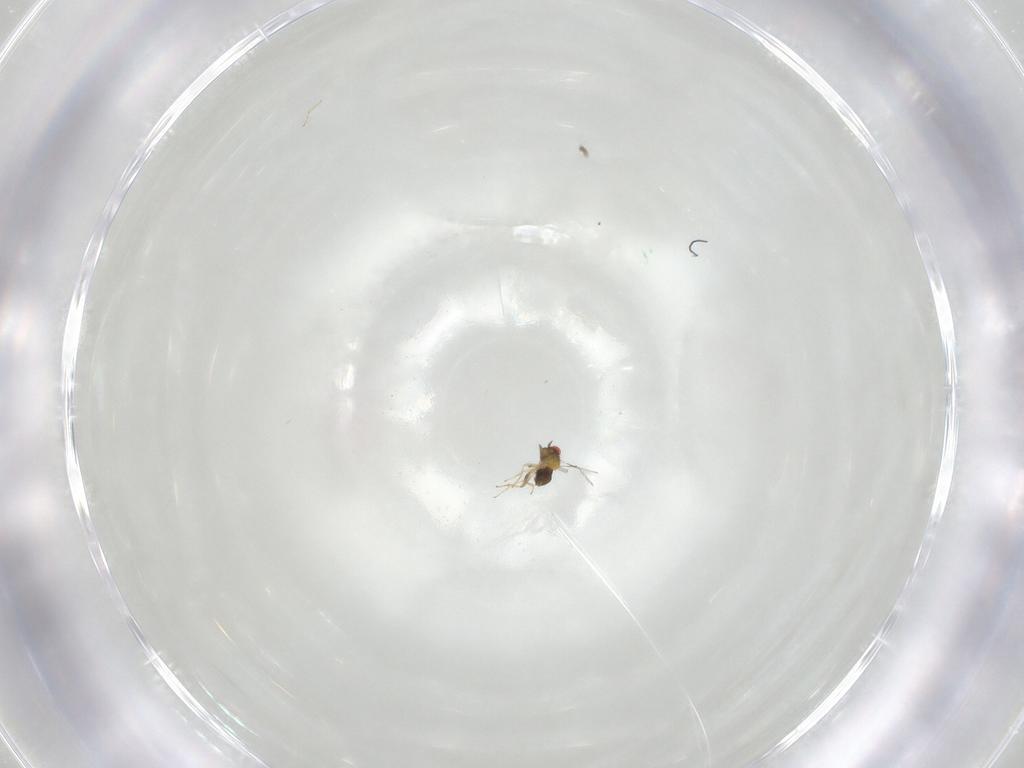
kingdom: Animalia
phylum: Arthropoda
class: Insecta
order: Hymenoptera
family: Trichogrammatidae
